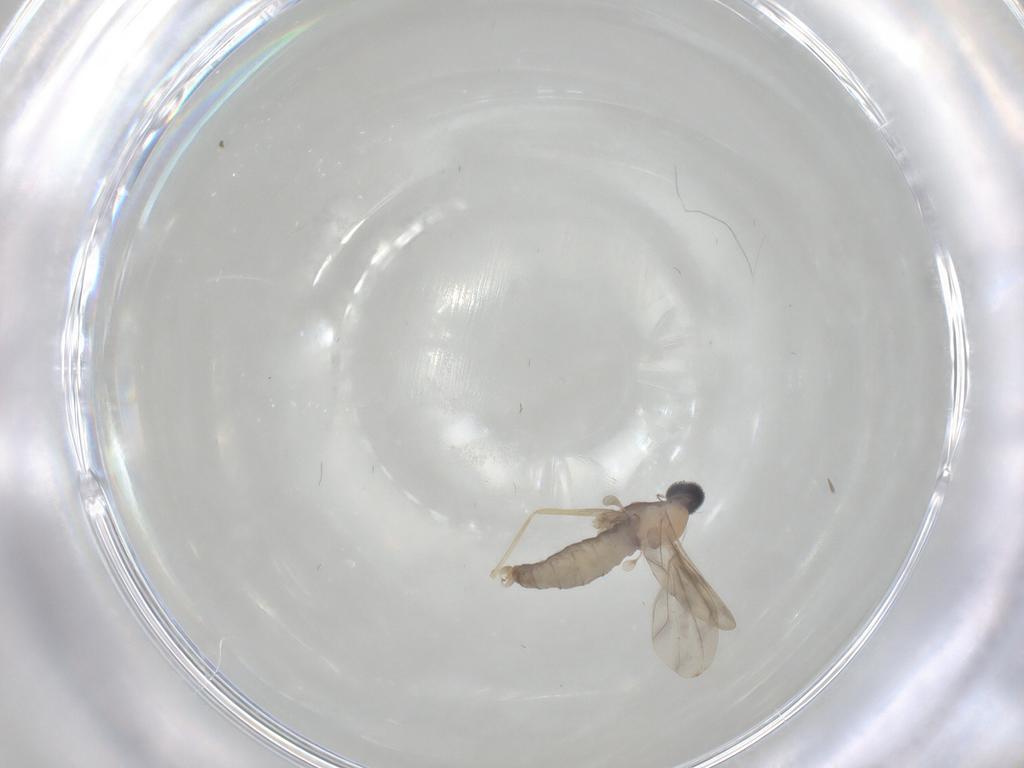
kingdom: Animalia
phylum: Arthropoda
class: Insecta
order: Diptera
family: Cecidomyiidae
